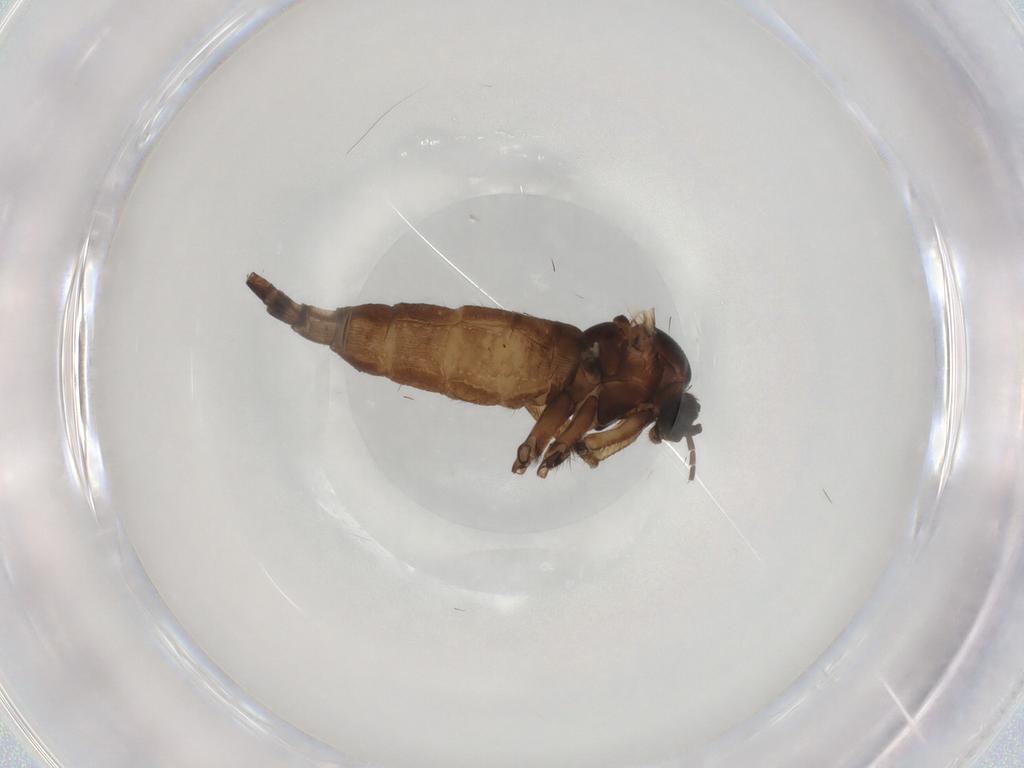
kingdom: Animalia
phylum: Arthropoda
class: Insecta
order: Diptera
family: Sciaridae
